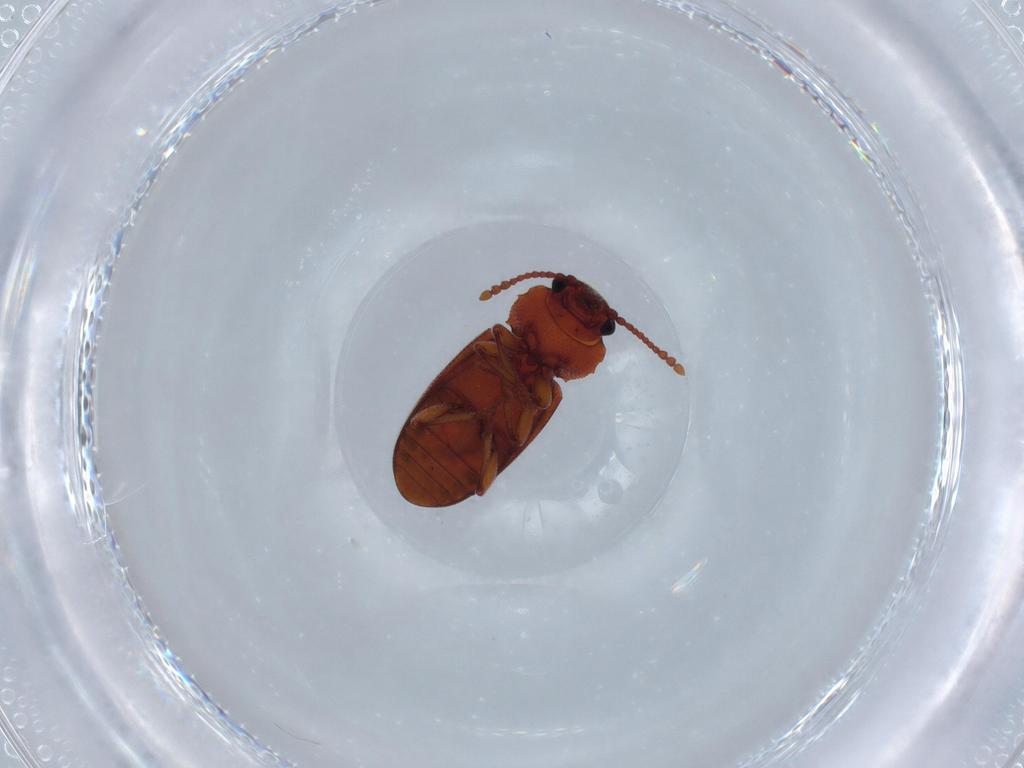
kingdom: Animalia
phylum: Arthropoda
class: Insecta
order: Coleoptera
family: Cryptophagidae
